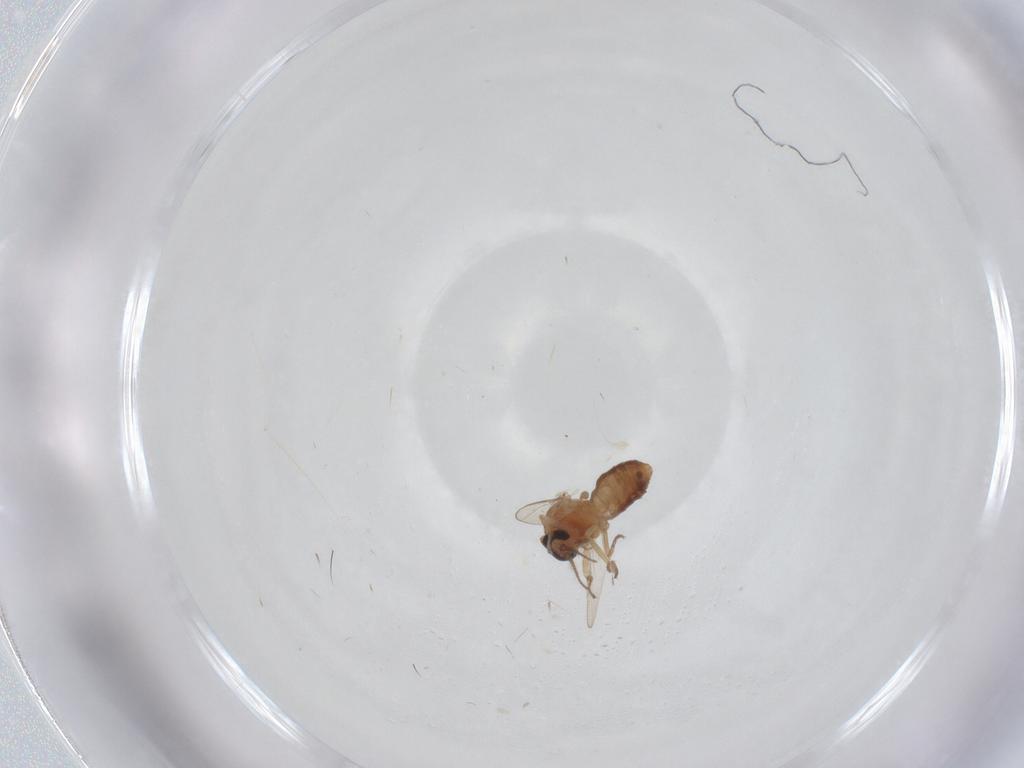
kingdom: Animalia
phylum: Arthropoda
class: Insecta
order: Diptera
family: Ceratopogonidae
